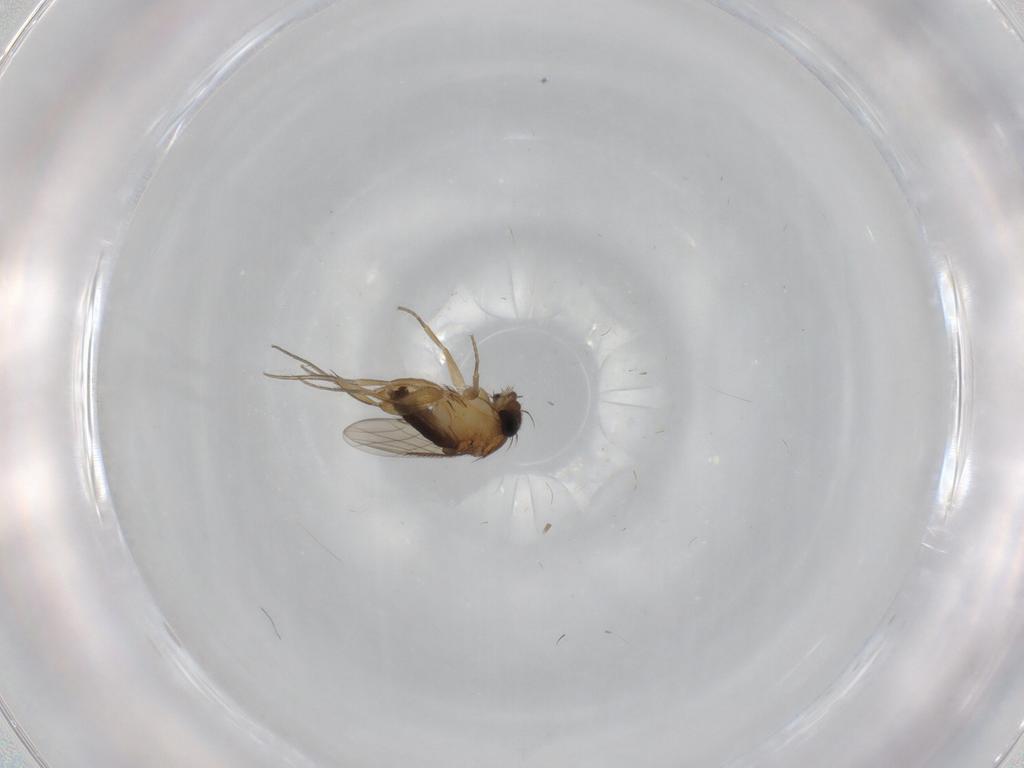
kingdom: Animalia
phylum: Arthropoda
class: Insecta
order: Diptera
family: Phoridae
